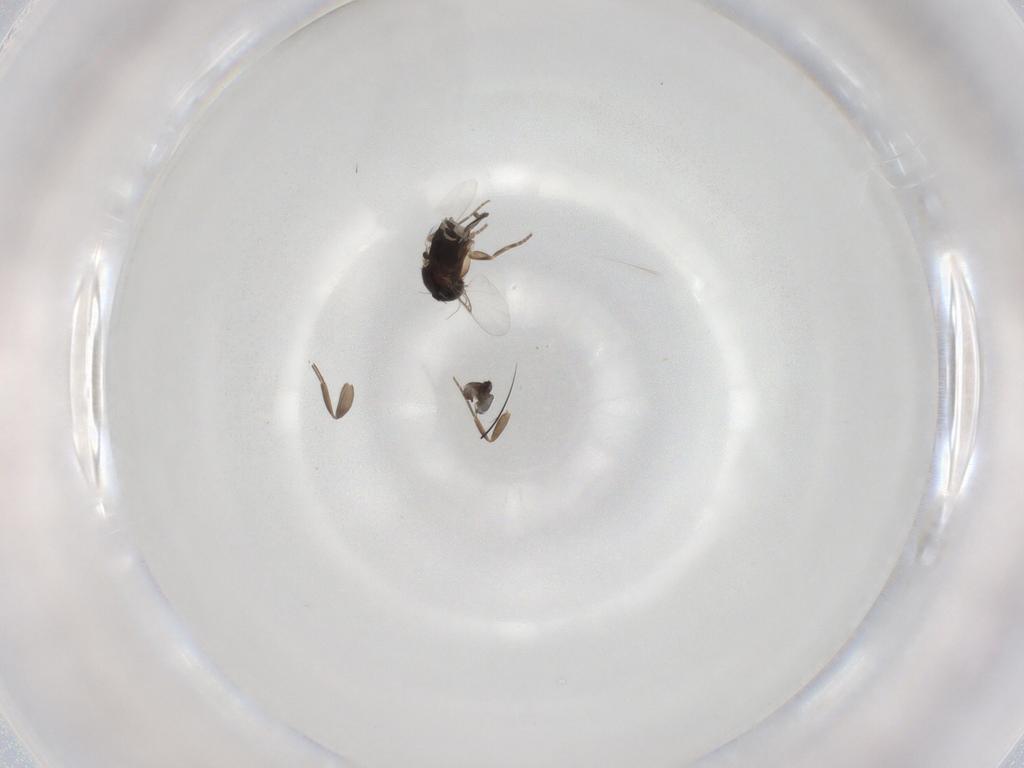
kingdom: Animalia
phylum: Arthropoda
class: Insecta
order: Diptera
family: Phoridae
